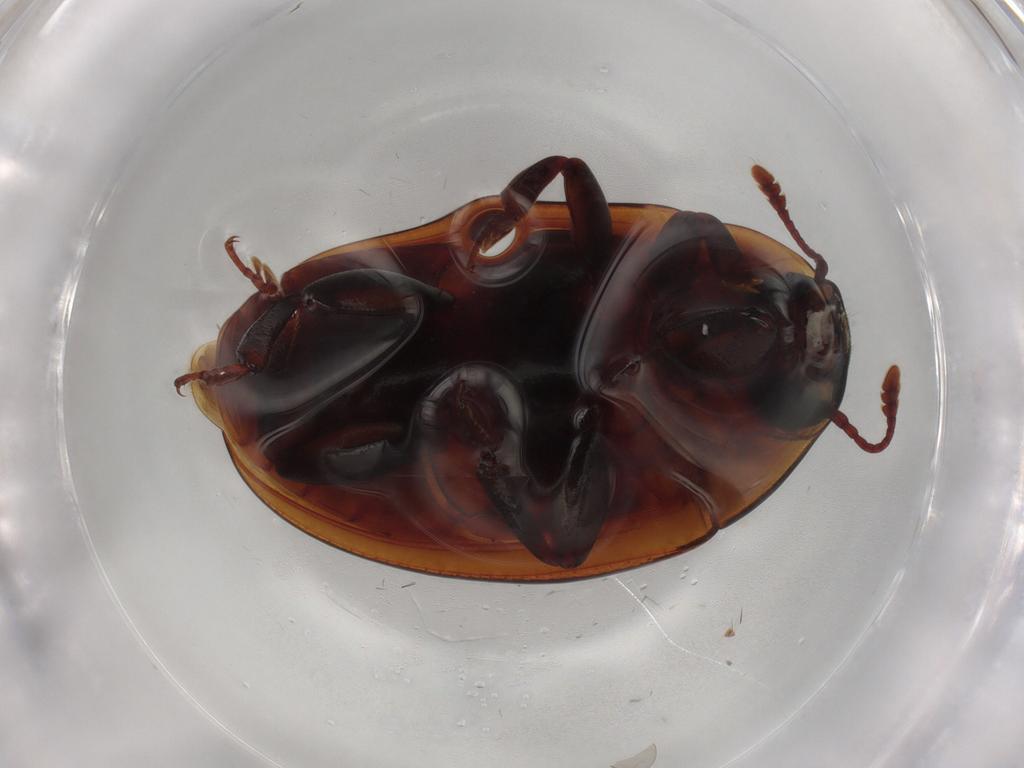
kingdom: Animalia
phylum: Arthropoda
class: Insecta
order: Coleoptera
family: Zopheridae
